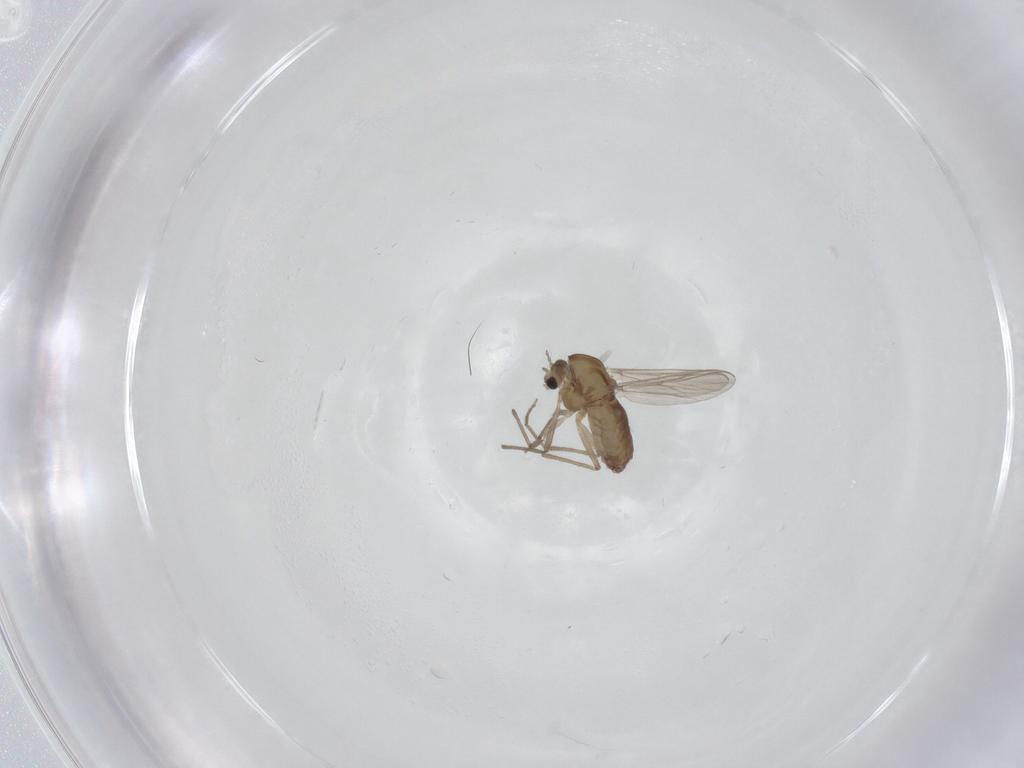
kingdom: Animalia
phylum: Arthropoda
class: Insecta
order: Diptera
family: Chironomidae
